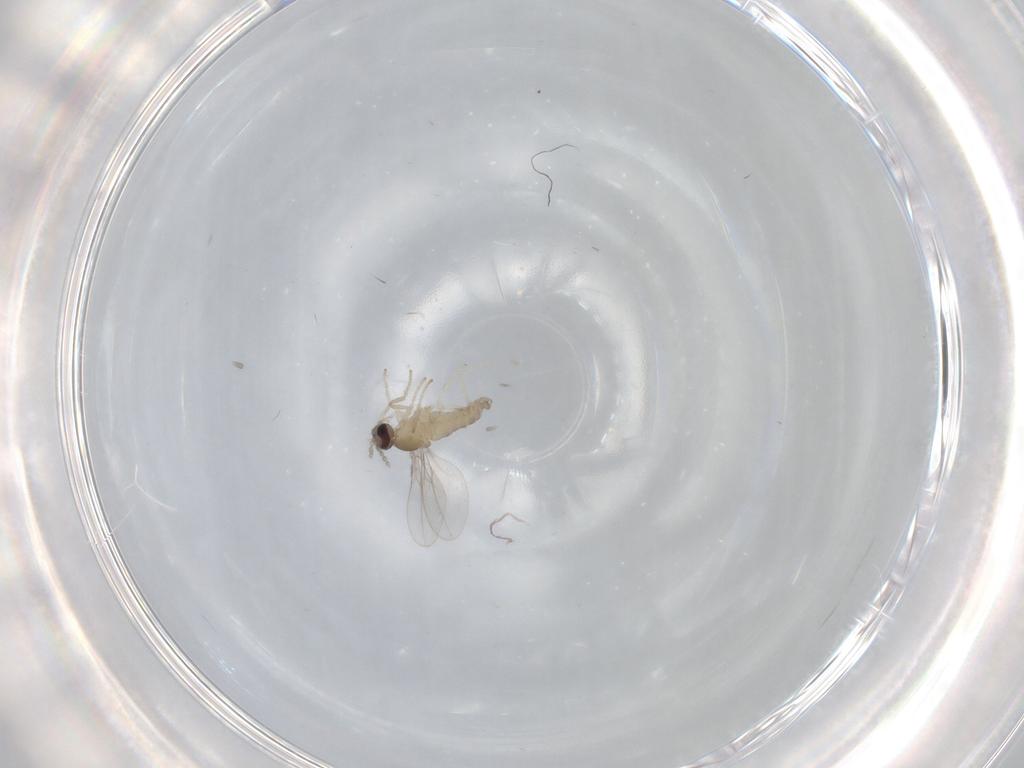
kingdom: Animalia
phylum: Arthropoda
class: Insecta
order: Diptera
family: Cecidomyiidae
